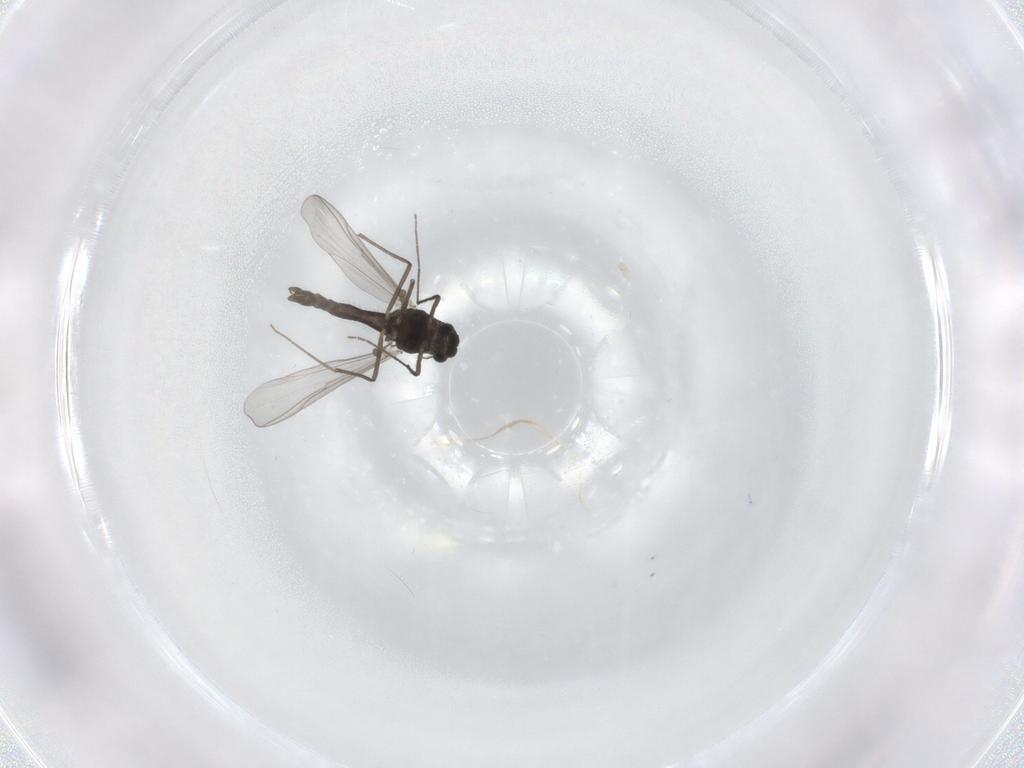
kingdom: Animalia
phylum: Arthropoda
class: Insecta
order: Diptera
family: Chironomidae
